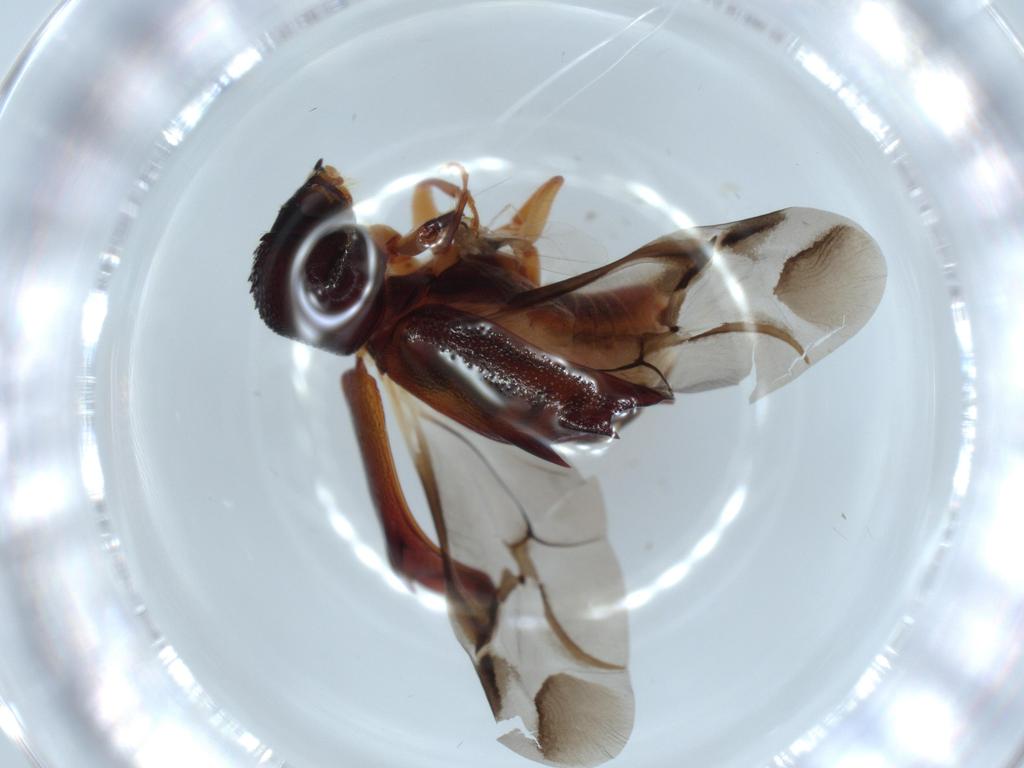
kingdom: Animalia
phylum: Arthropoda
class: Insecta
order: Coleoptera
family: Bostrichidae
